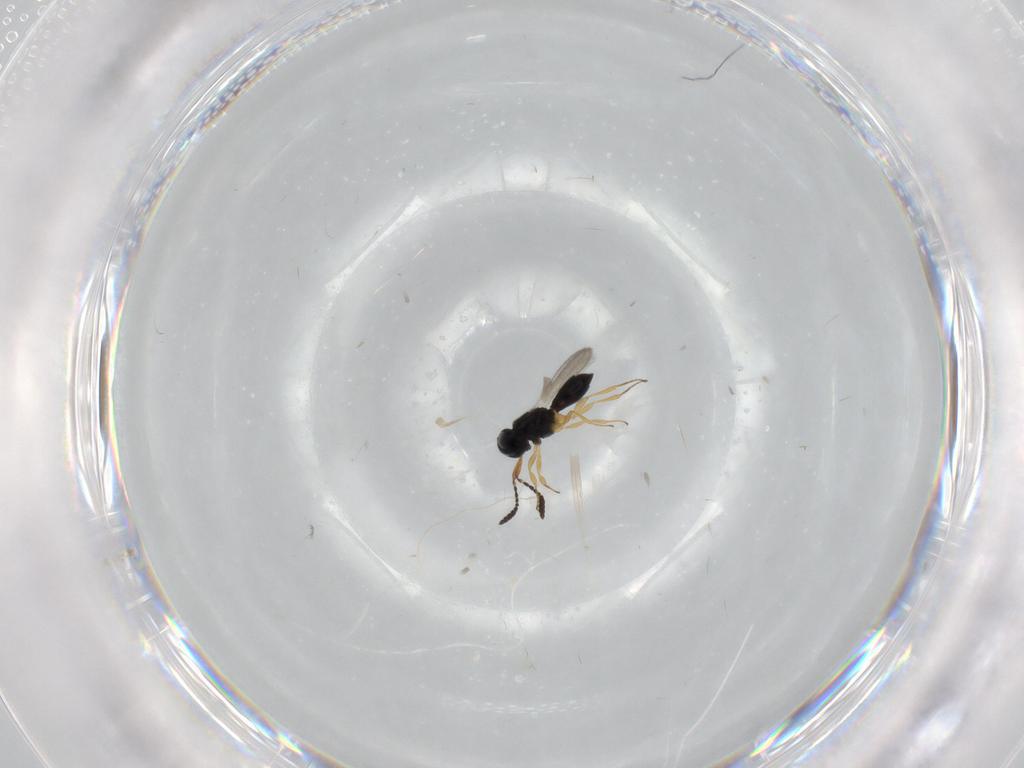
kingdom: Animalia
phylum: Arthropoda
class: Insecta
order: Hymenoptera
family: Scelionidae
